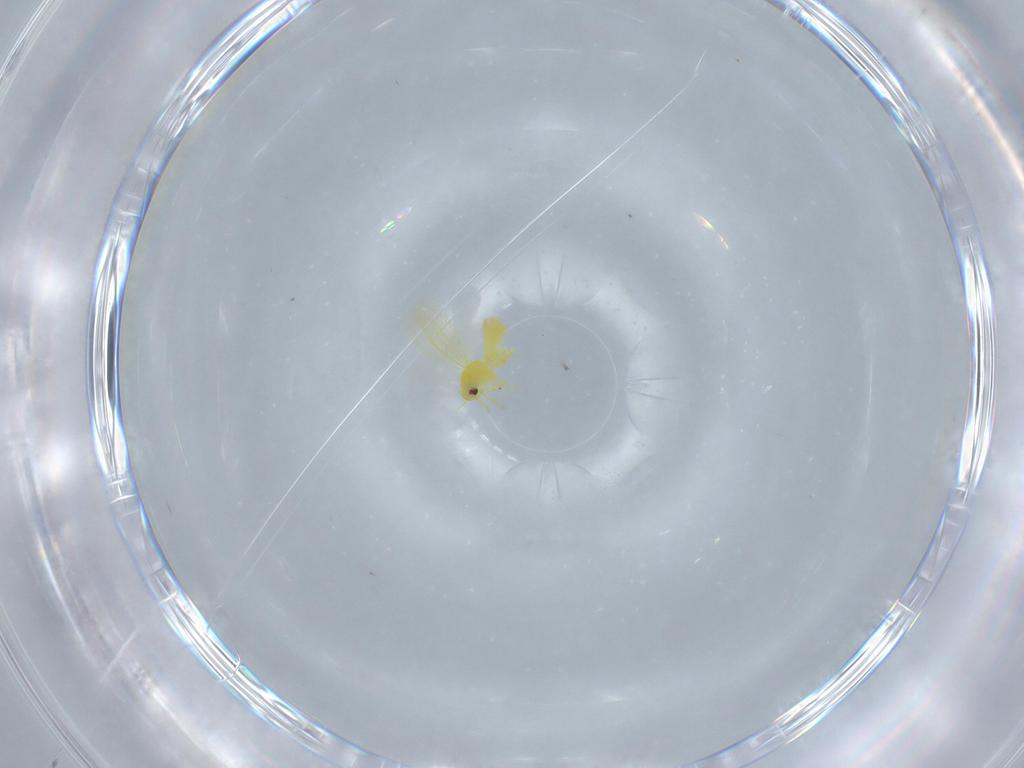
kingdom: Animalia
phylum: Arthropoda
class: Insecta
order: Hemiptera
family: Aleyrodidae
